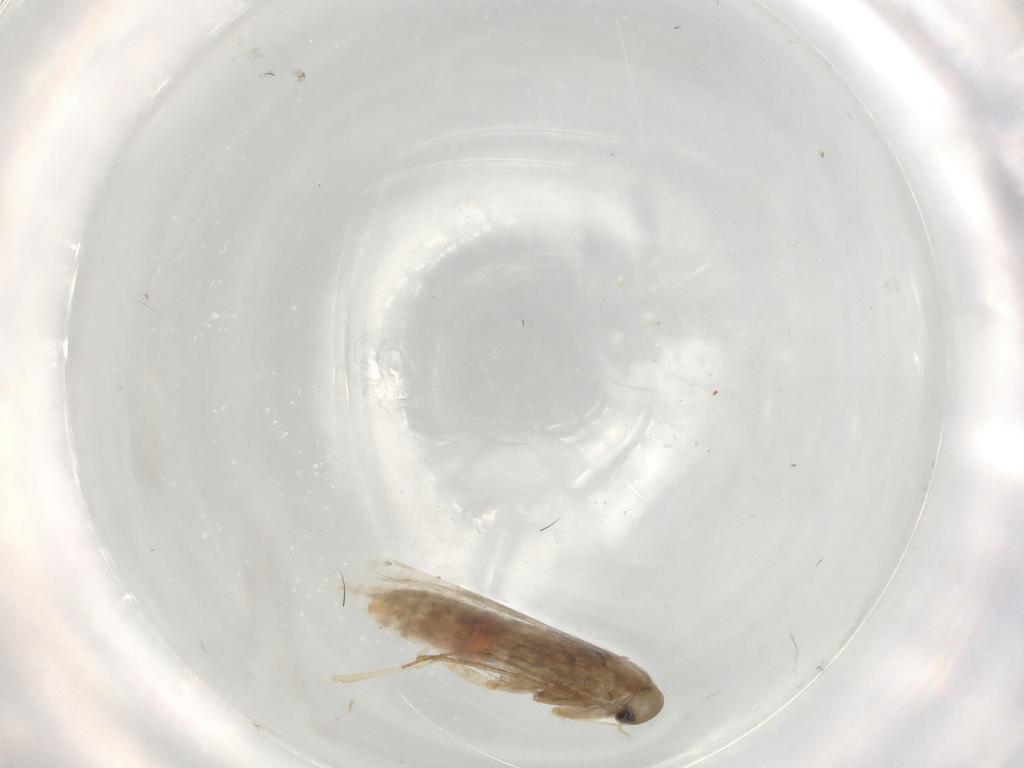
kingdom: Animalia
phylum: Arthropoda
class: Insecta
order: Lepidoptera
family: Gracillariidae
